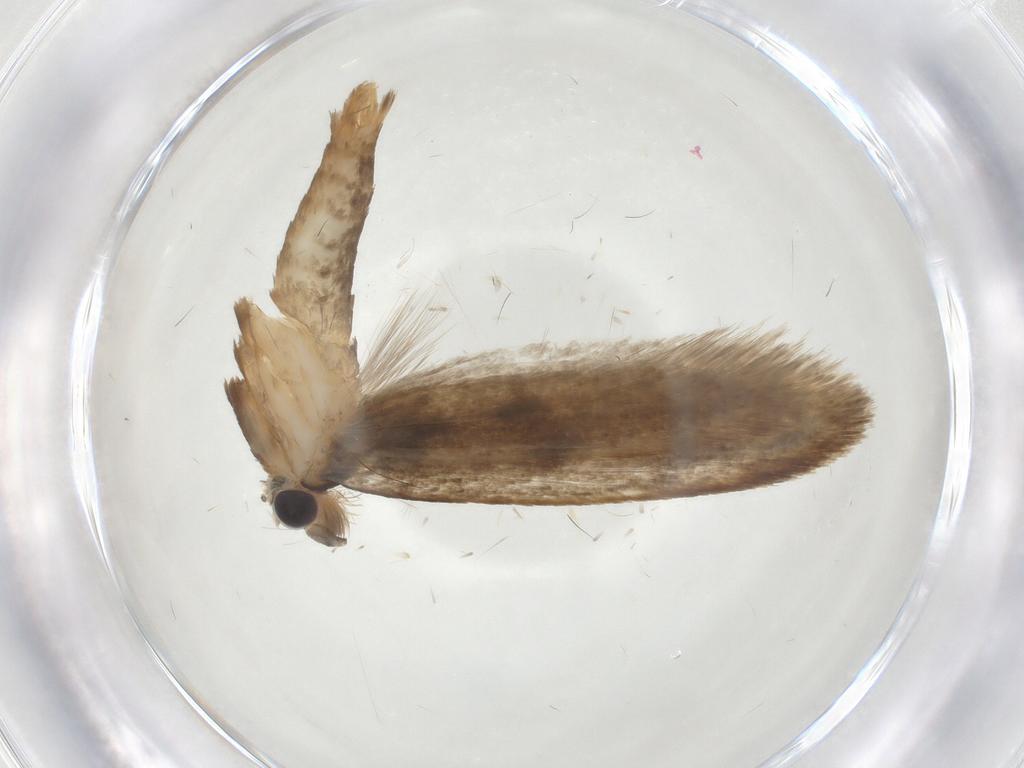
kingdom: Animalia
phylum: Arthropoda
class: Insecta
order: Lepidoptera
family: Tineidae
